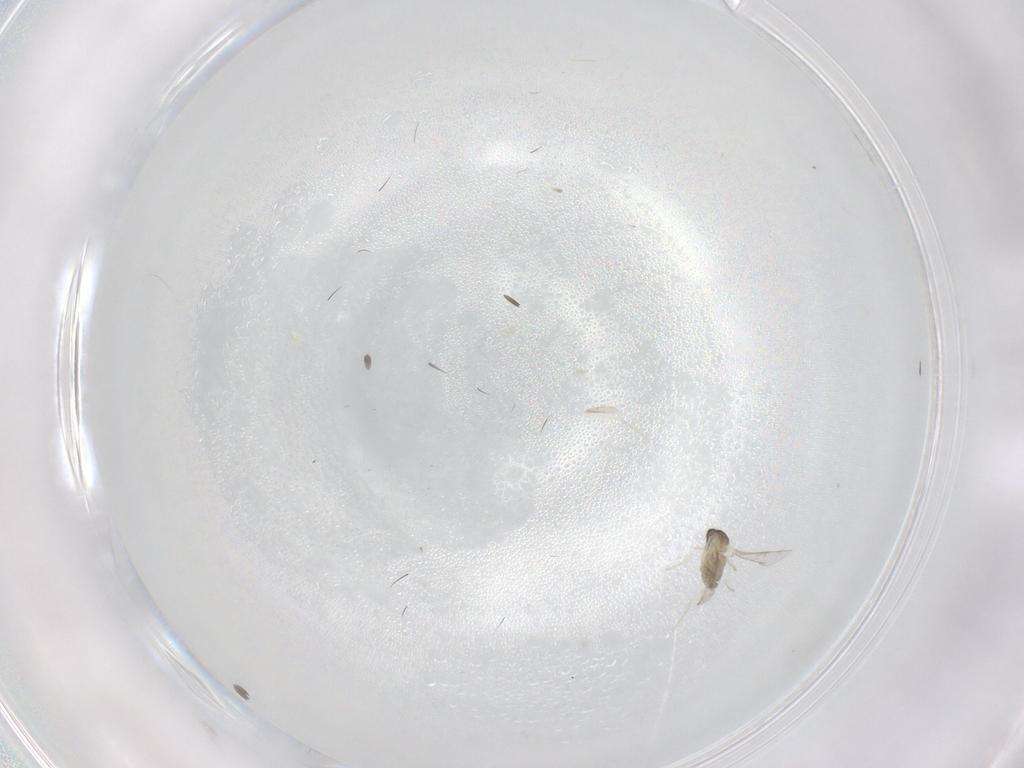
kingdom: Animalia
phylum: Arthropoda
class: Insecta
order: Diptera
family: Cecidomyiidae
